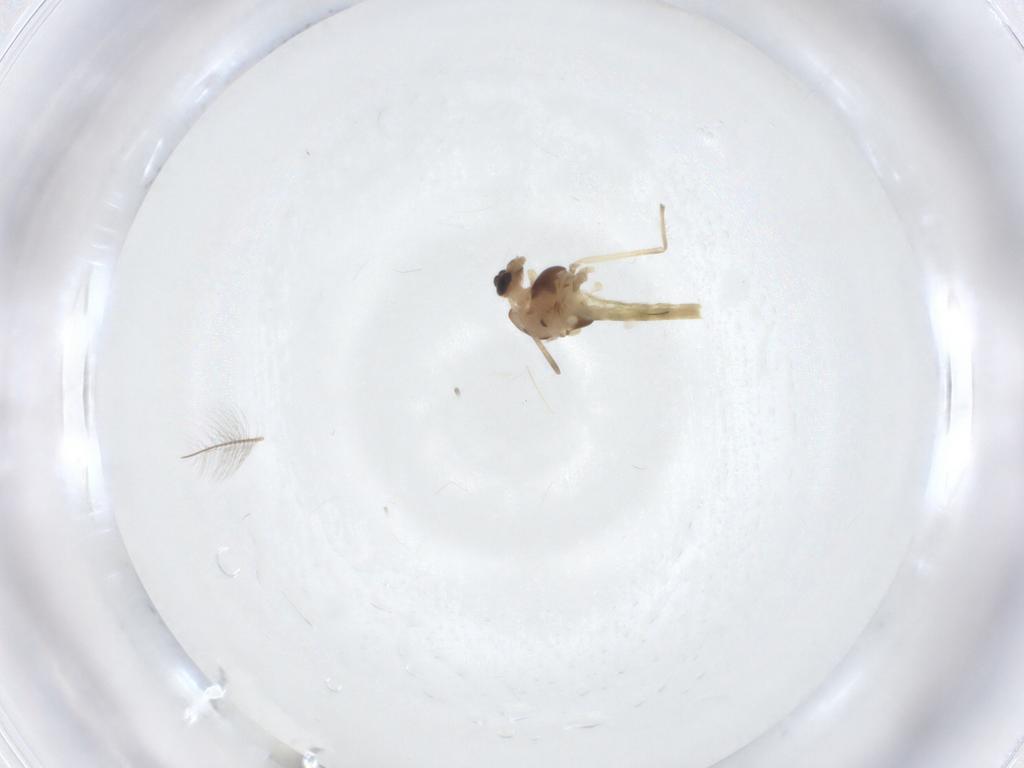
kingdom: Animalia
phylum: Arthropoda
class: Insecta
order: Diptera
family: Chironomidae
